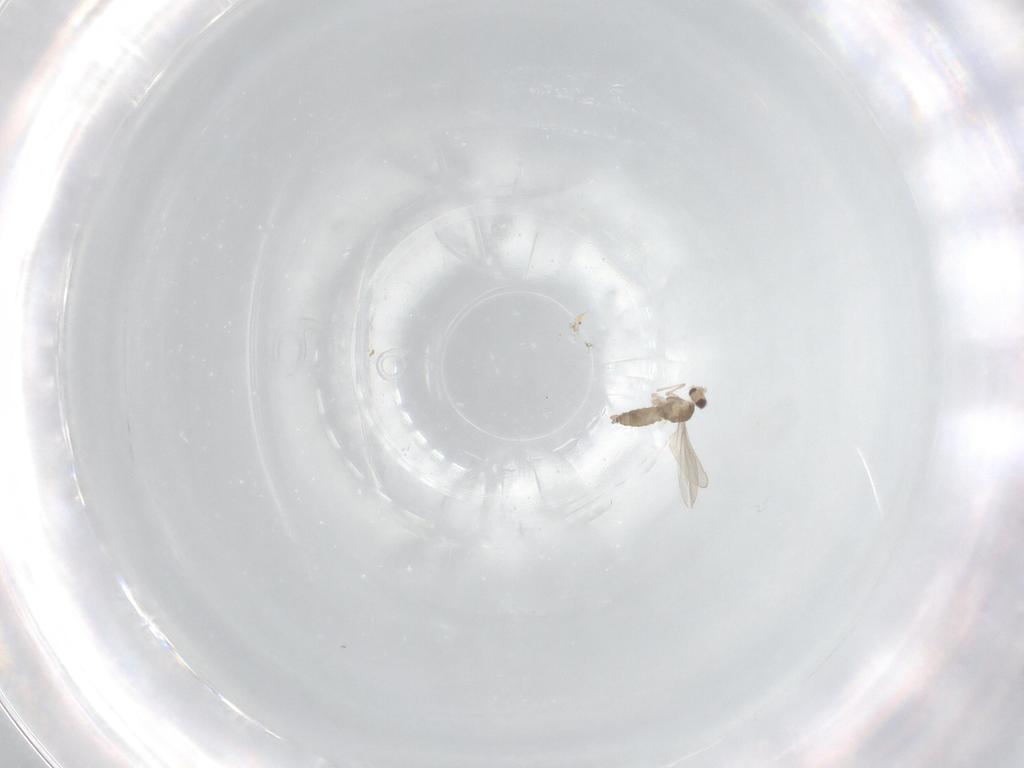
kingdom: Animalia
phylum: Arthropoda
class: Insecta
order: Diptera
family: Cecidomyiidae
